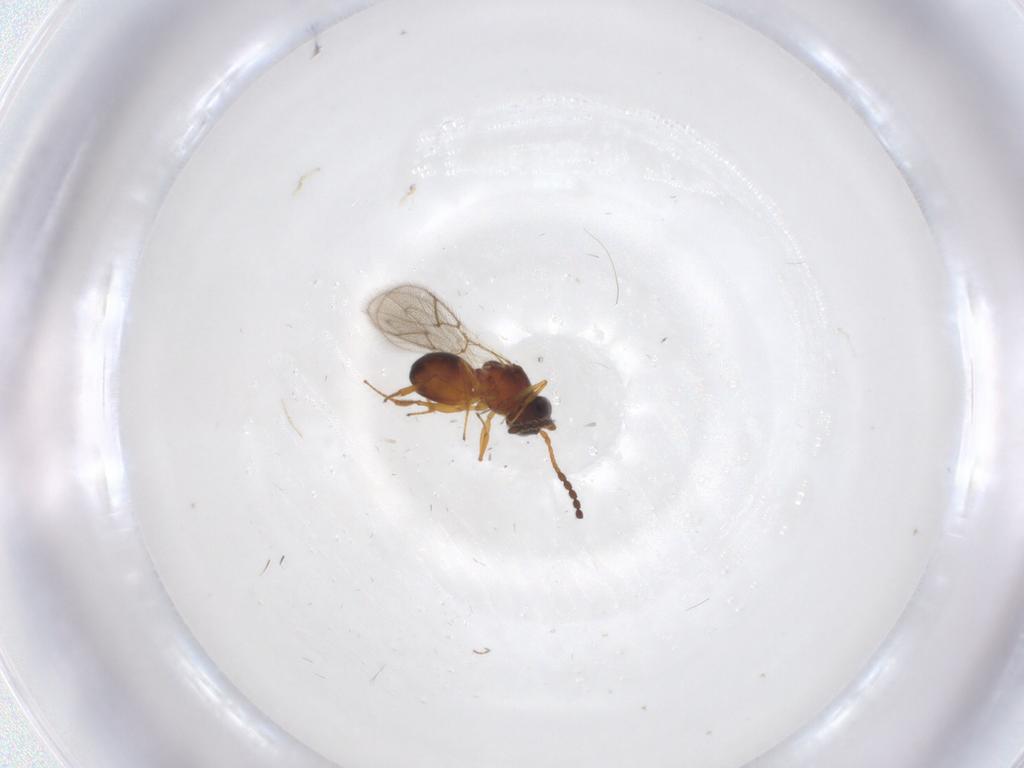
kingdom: Animalia
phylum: Arthropoda
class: Insecta
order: Hymenoptera
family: Figitidae
